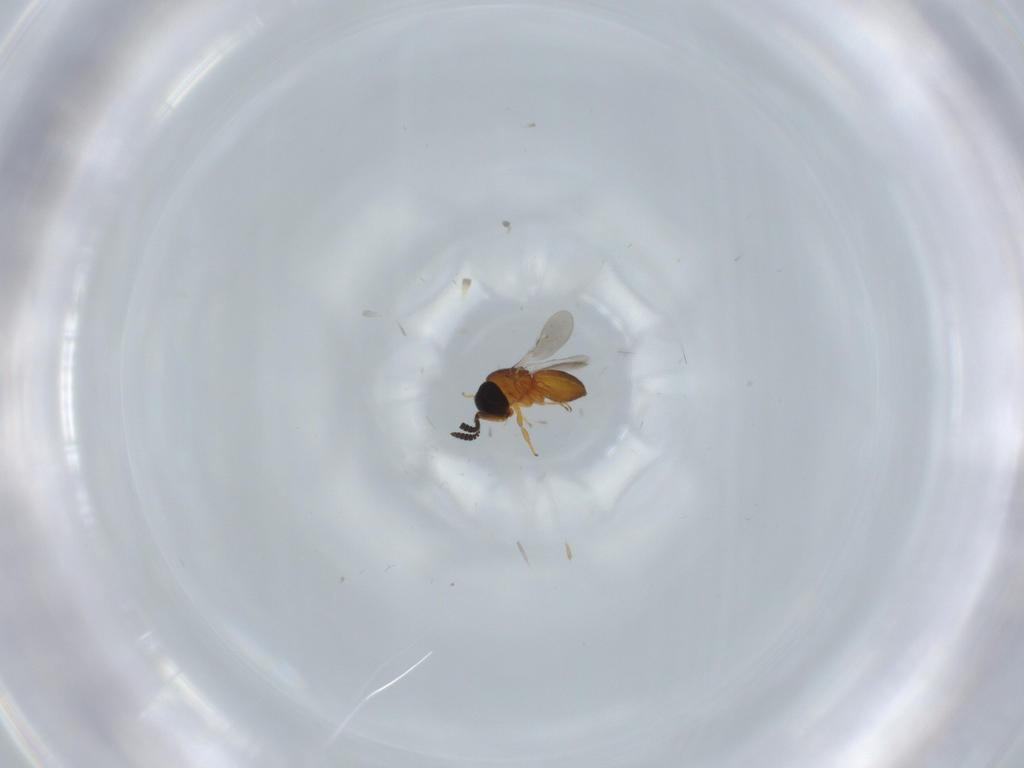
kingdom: Animalia
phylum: Arthropoda
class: Insecta
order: Hymenoptera
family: Scelionidae
